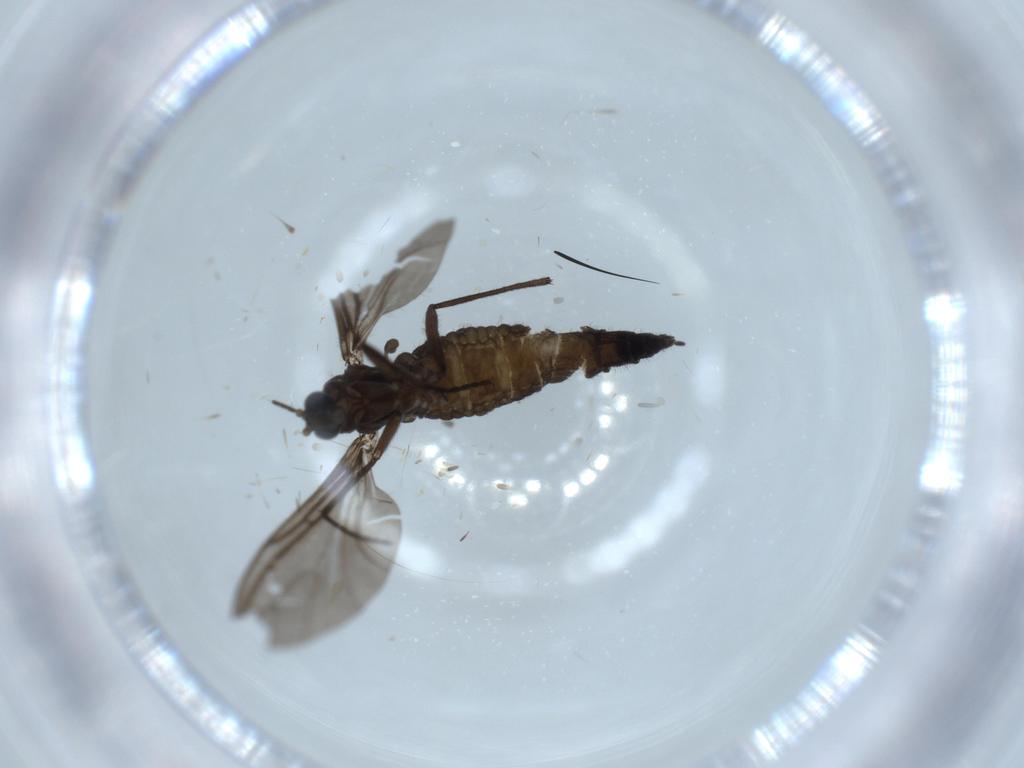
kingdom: Animalia
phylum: Arthropoda
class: Insecta
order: Diptera
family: Sciaridae
